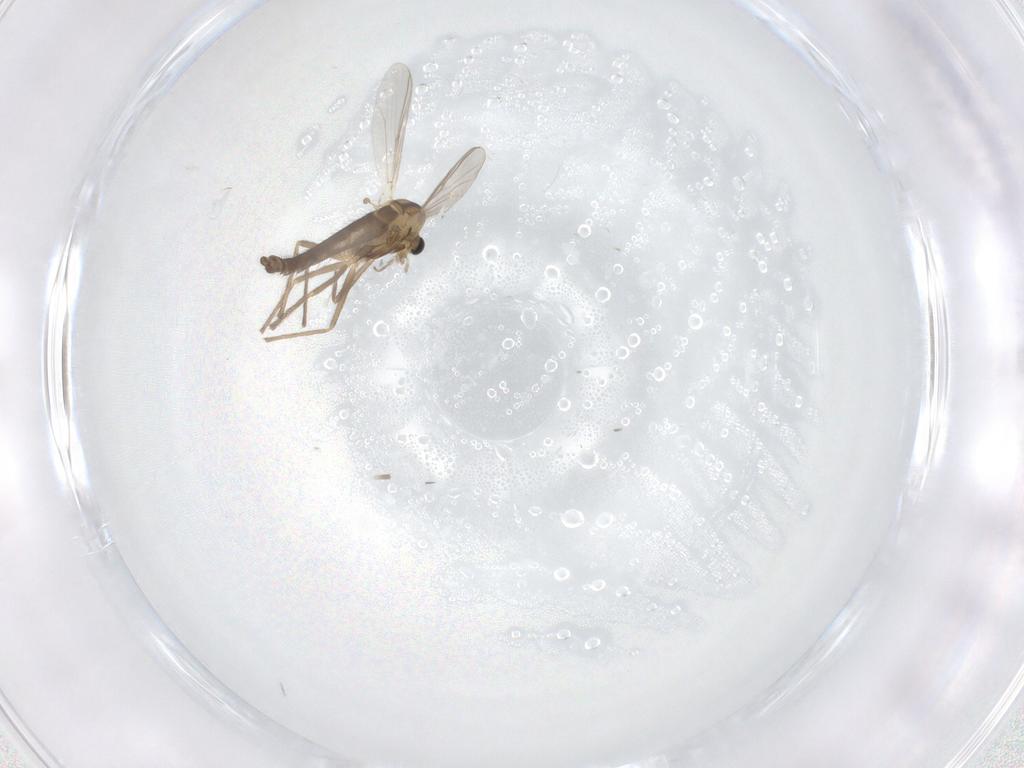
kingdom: Animalia
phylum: Arthropoda
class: Insecta
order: Diptera
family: Chironomidae
